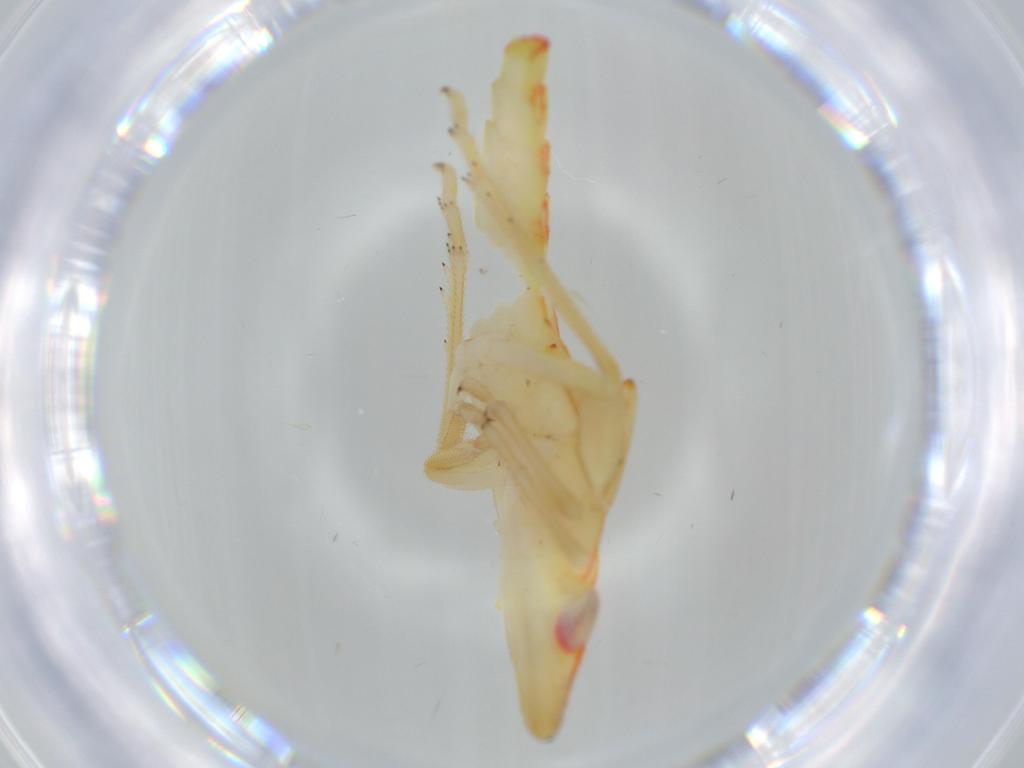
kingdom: Animalia
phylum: Arthropoda
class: Insecta
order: Hemiptera
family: Tropiduchidae
